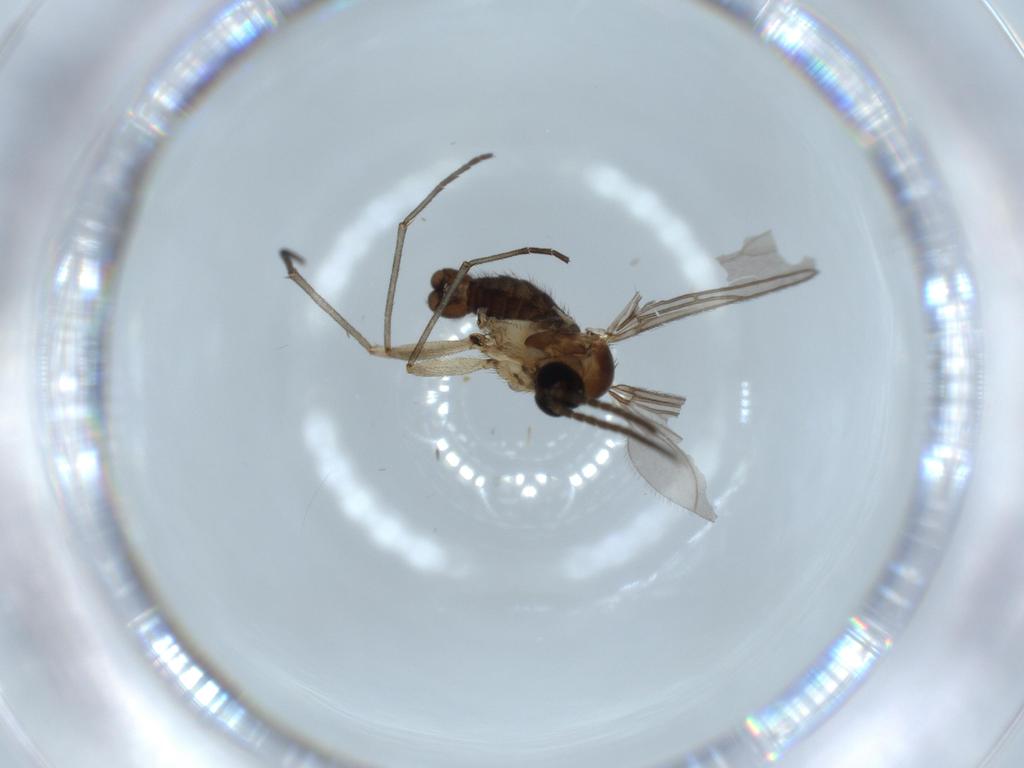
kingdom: Animalia
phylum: Arthropoda
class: Insecta
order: Diptera
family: Sciaridae
